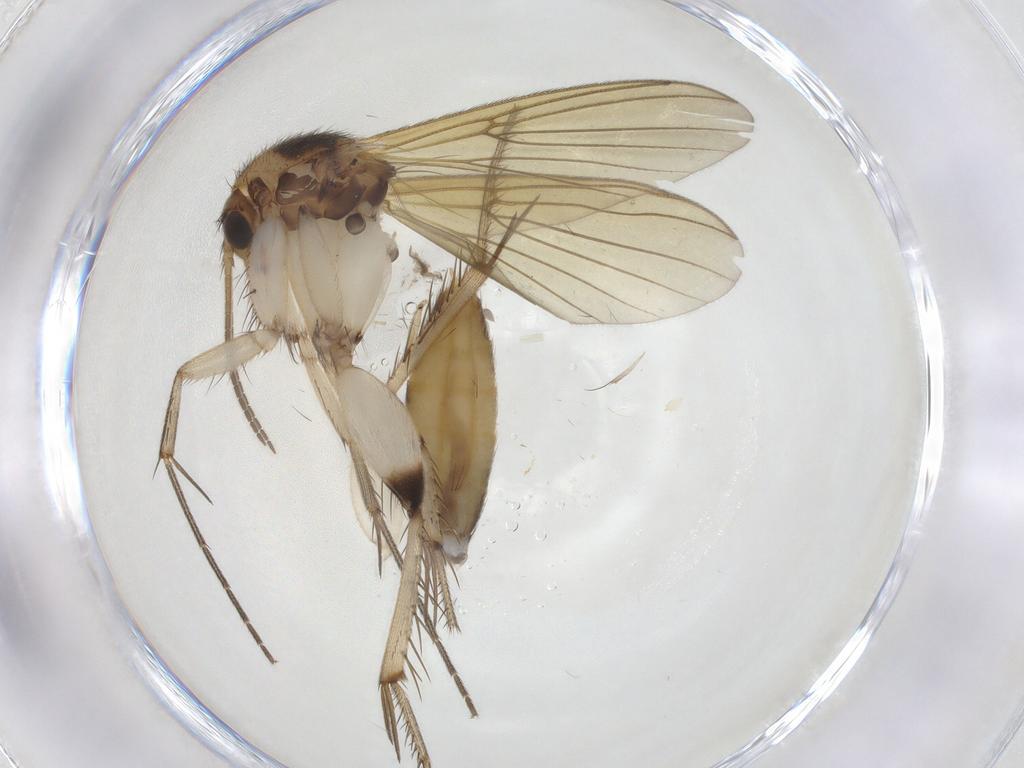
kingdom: Animalia
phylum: Arthropoda
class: Insecta
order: Diptera
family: Mycetophilidae
